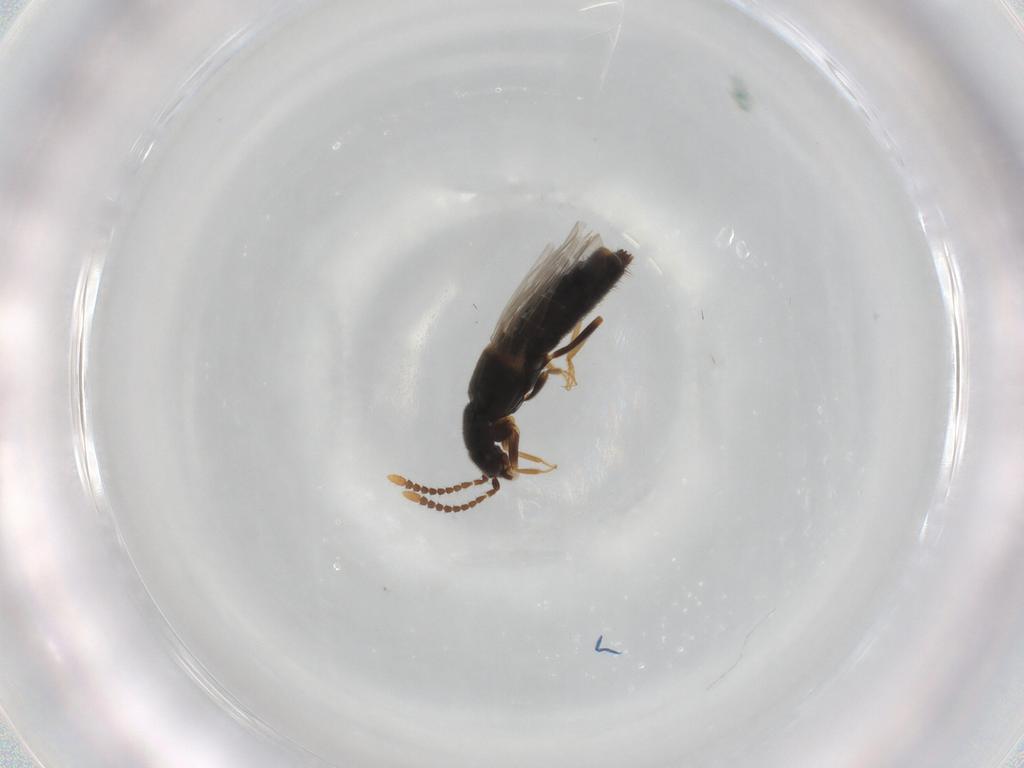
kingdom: Animalia
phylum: Arthropoda
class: Insecta
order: Coleoptera
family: Staphylinidae
